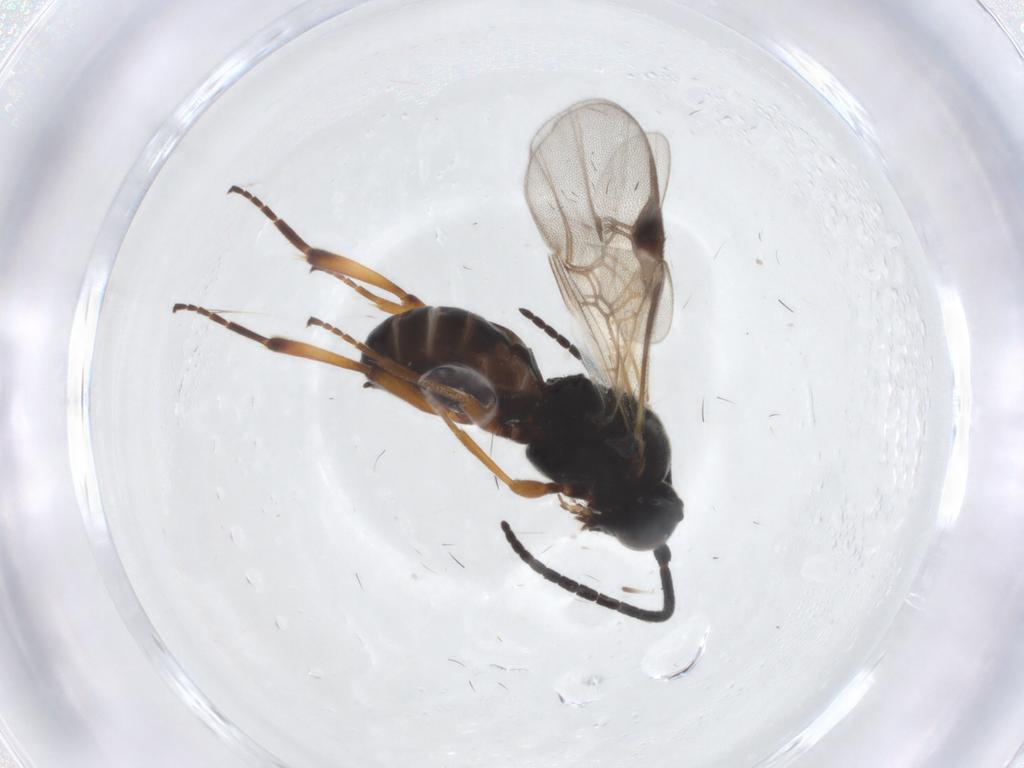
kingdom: Animalia
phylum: Arthropoda
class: Insecta
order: Hymenoptera
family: Braconidae
